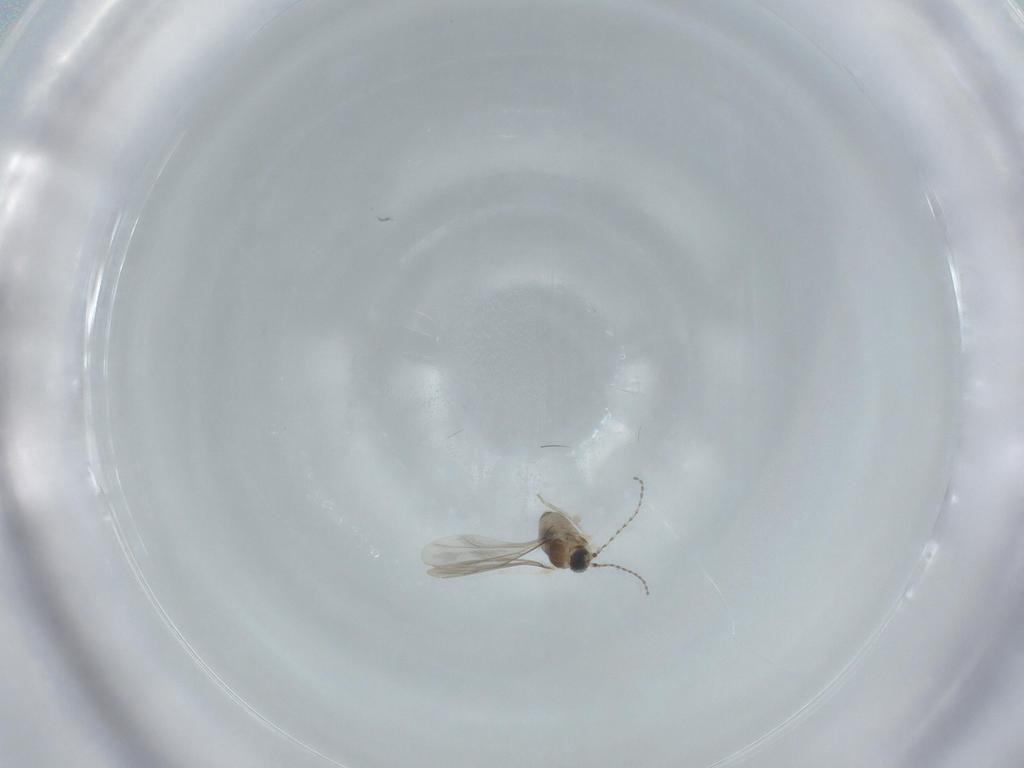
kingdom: Animalia
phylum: Arthropoda
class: Insecta
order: Diptera
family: Cecidomyiidae
